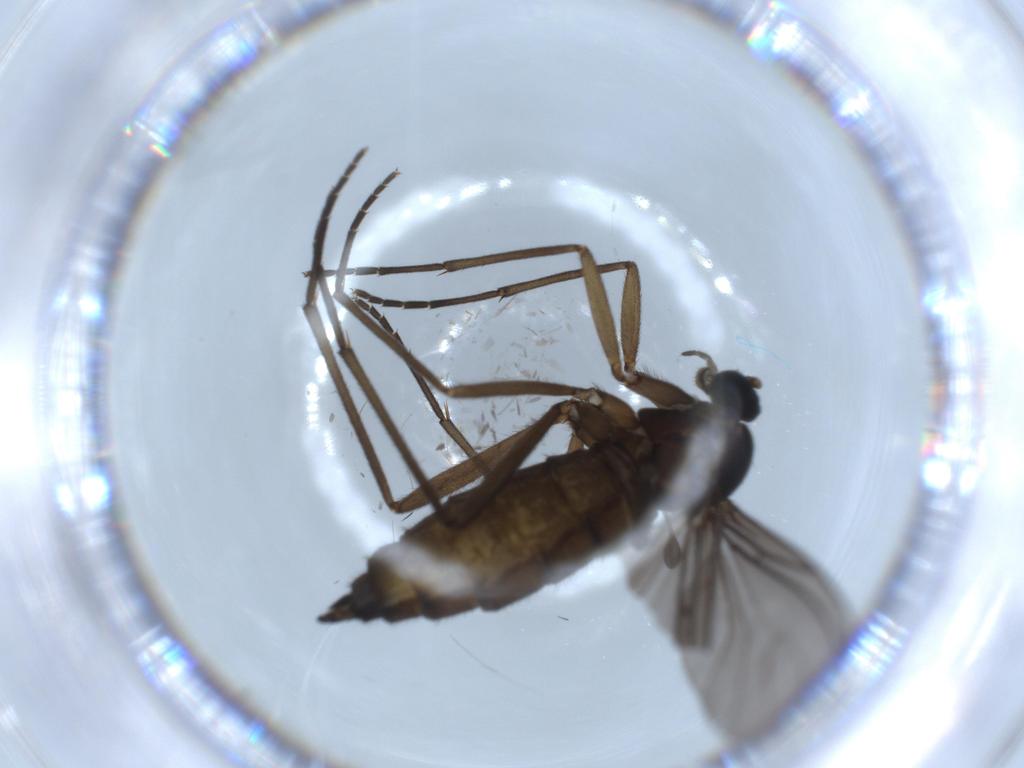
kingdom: Animalia
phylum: Arthropoda
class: Insecta
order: Diptera
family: Sciaridae
